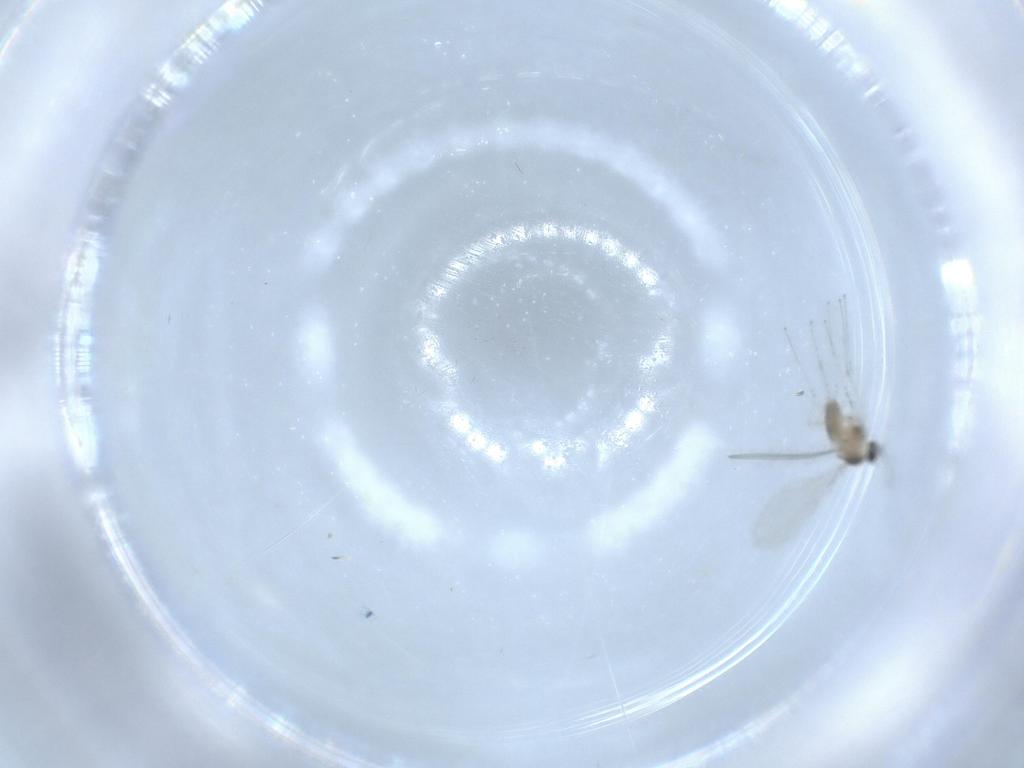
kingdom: Animalia
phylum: Arthropoda
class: Insecta
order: Diptera
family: Cecidomyiidae
